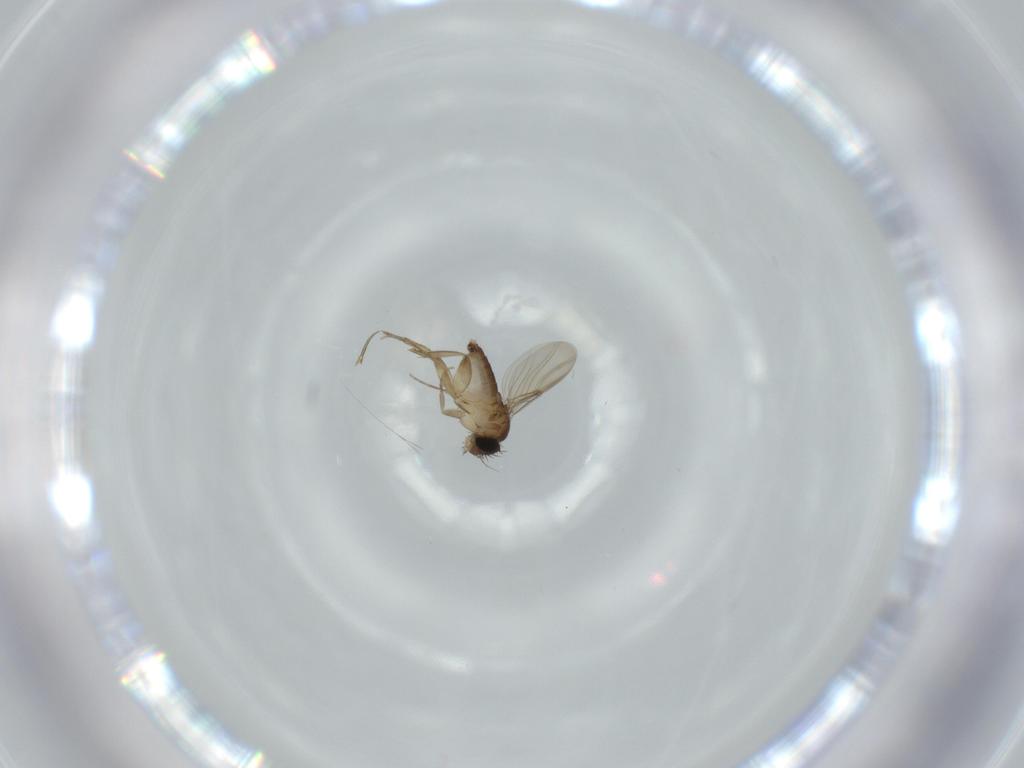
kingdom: Animalia
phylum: Arthropoda
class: Insecta
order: Diptera
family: Phoridae
